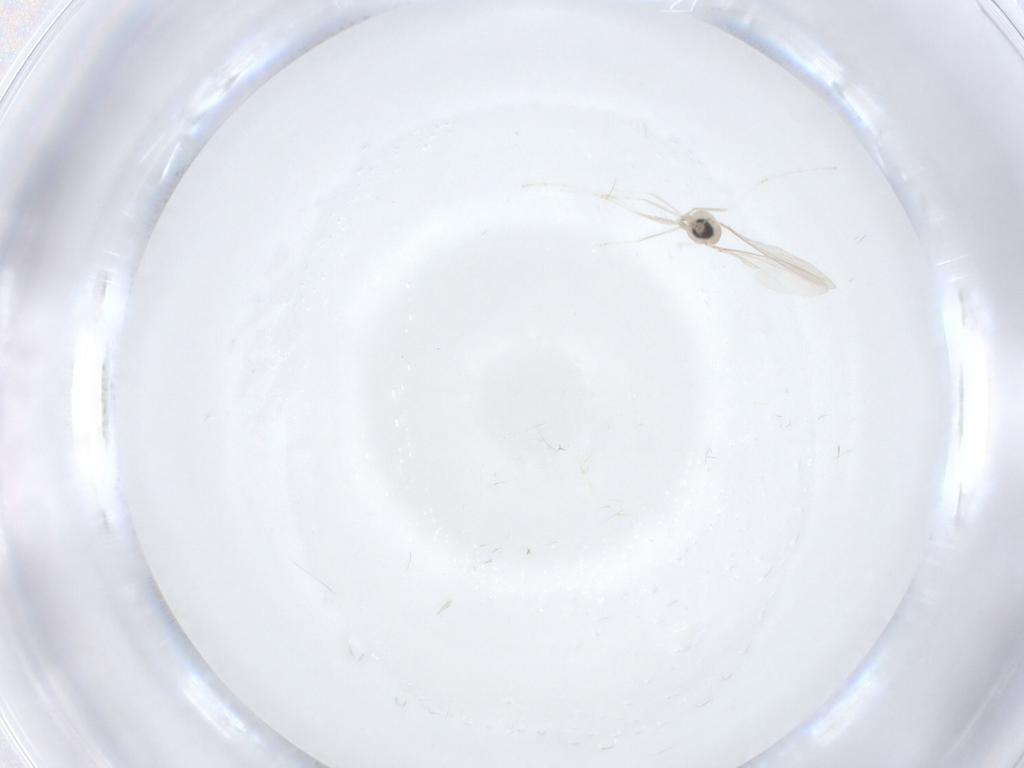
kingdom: Animalia
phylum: Arthropoda
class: Insecta
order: Diptera
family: Cecidomyiidae
